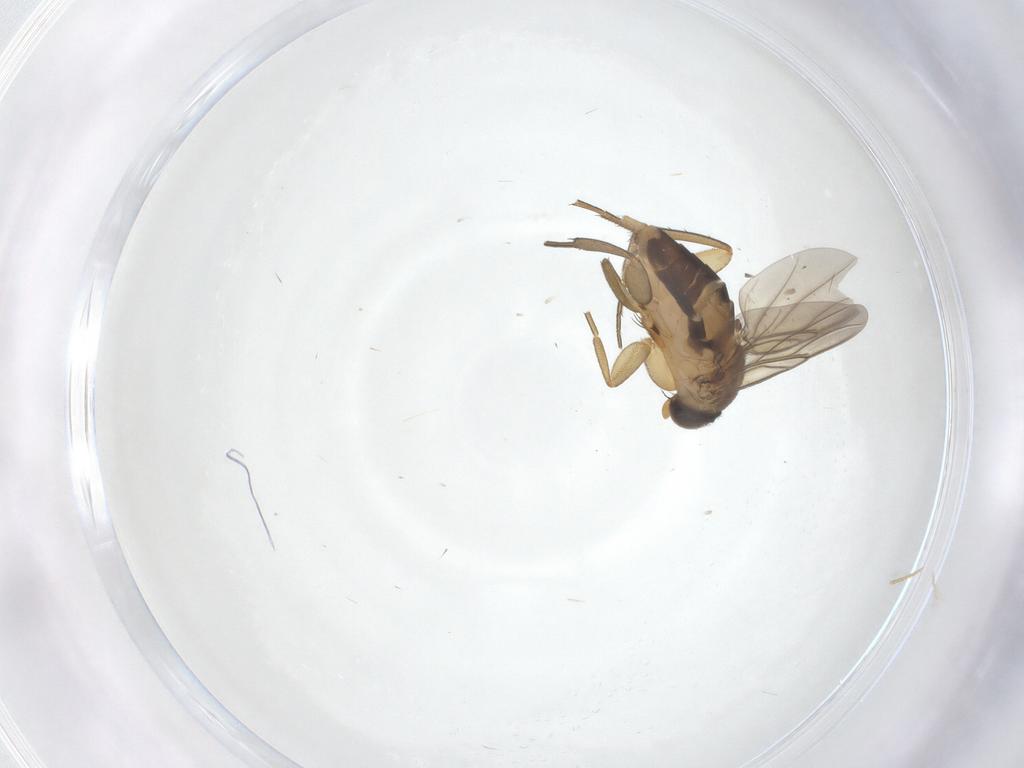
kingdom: Animalia
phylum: Arthropoda
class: Insecta
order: Diptera
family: Phoridae
